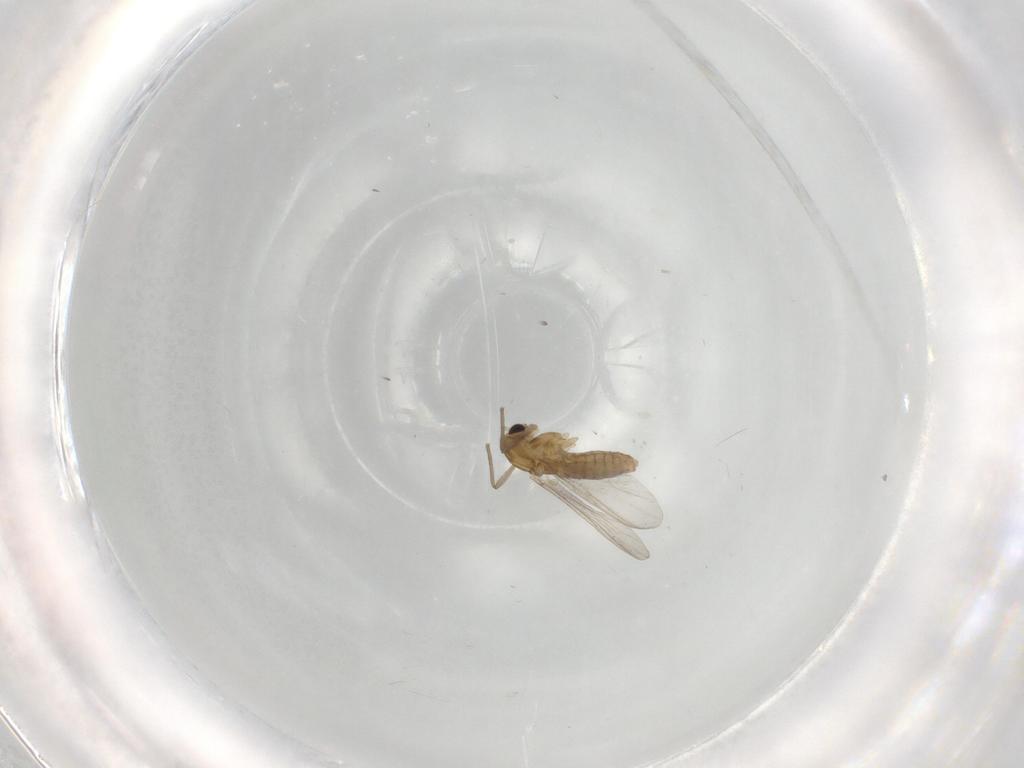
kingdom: Animalia
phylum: Arthropoda
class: Insecta
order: Diptera
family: Chironomidae
